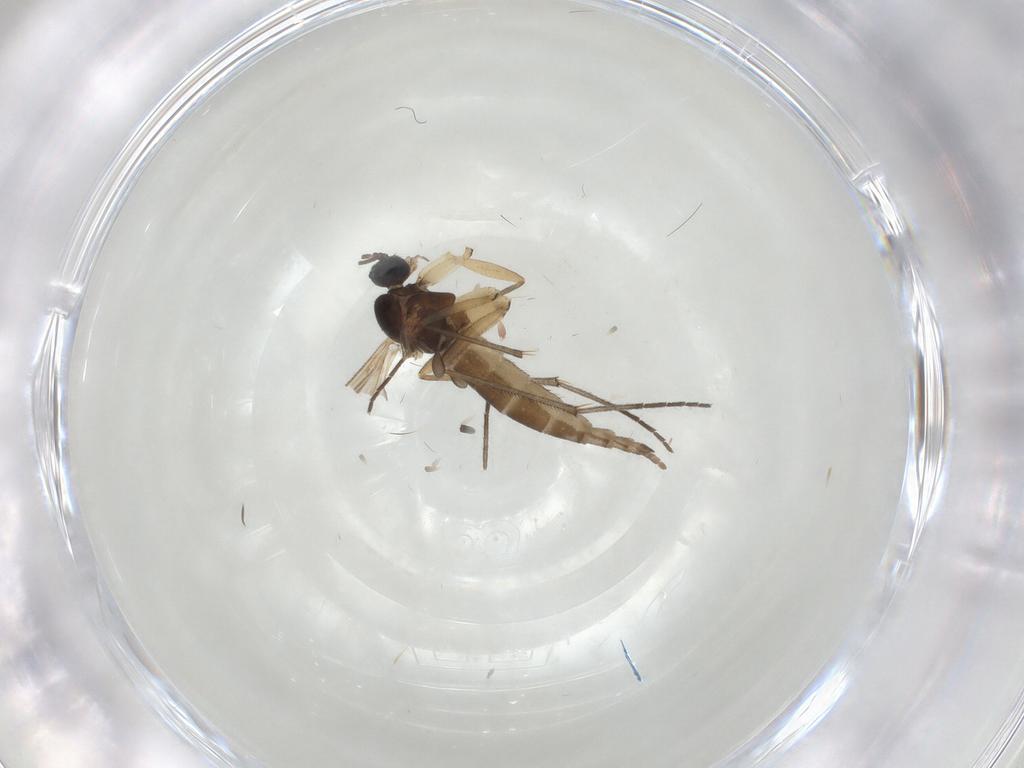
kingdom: Animalia
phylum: Arthropoda
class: Insecta
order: Diptera
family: Sciaridae
